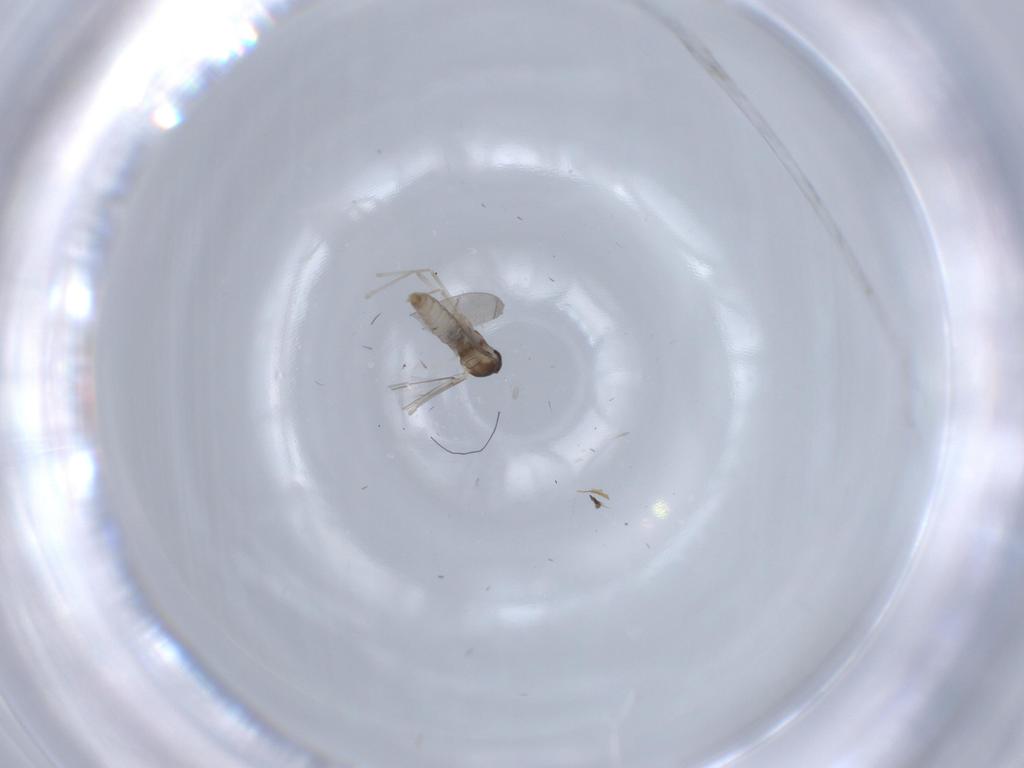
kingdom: Animalia
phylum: Arthropoda
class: Insecta
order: Diptera
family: Cecidomyiidae
